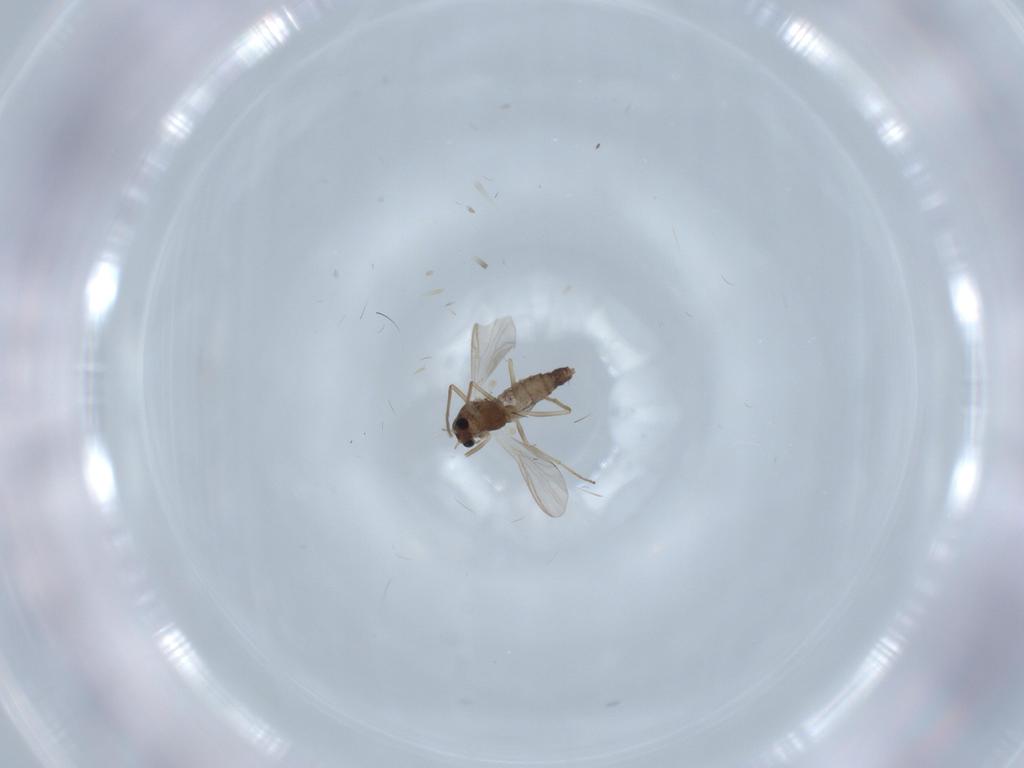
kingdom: Animalia
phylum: Arthropoda
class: Insecta
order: Diptera
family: Chironomidae
